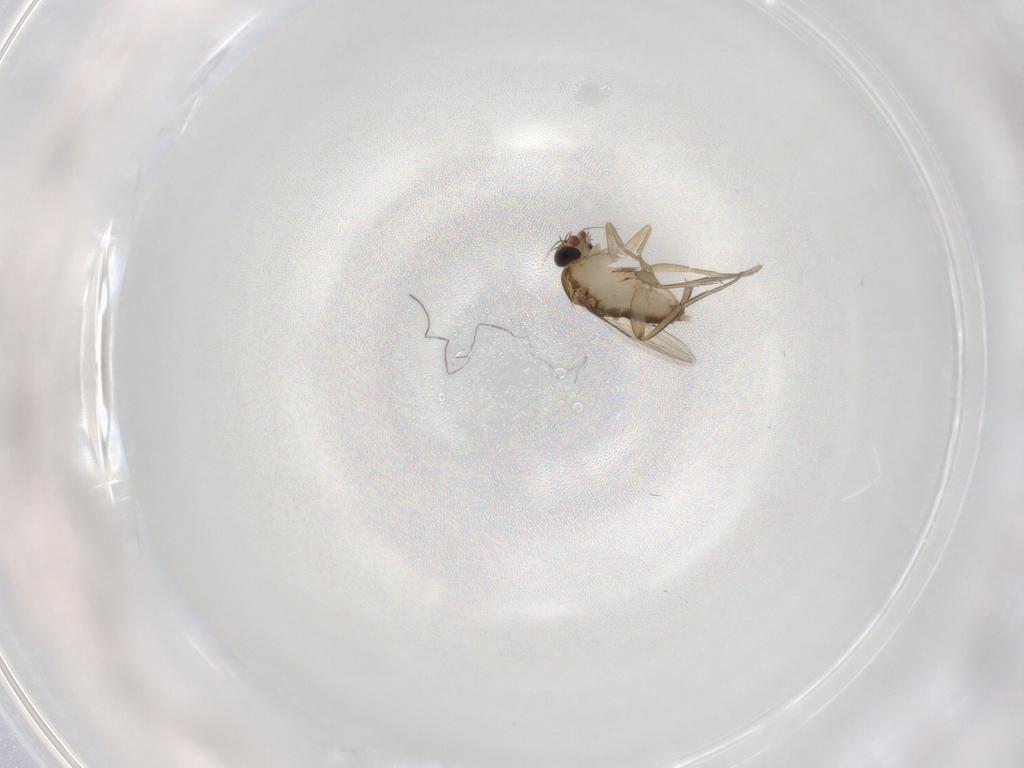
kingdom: Animalia
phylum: Arthropoda
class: Insecta
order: Diptera
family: Phoridae
